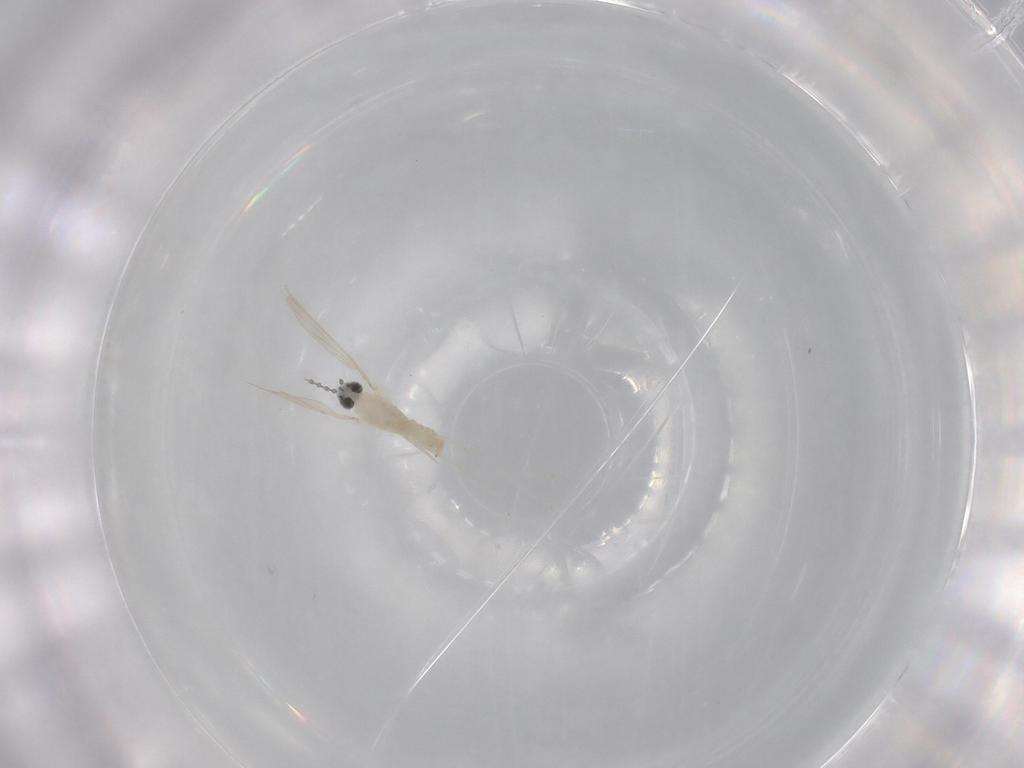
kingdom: Animalia
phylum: Arthropoda
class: Insecta
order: Diptera
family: Cecidomyiidae
